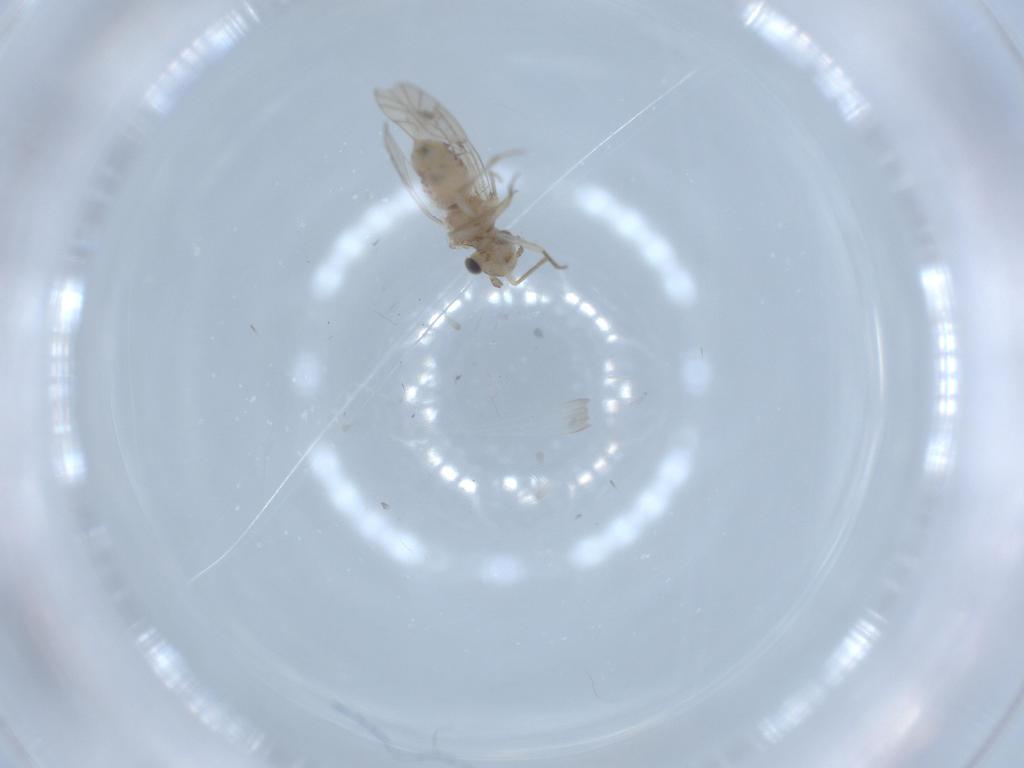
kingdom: Animalia
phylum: Arthropoda
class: Insecta
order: Psocodea
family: Lachesillidae
